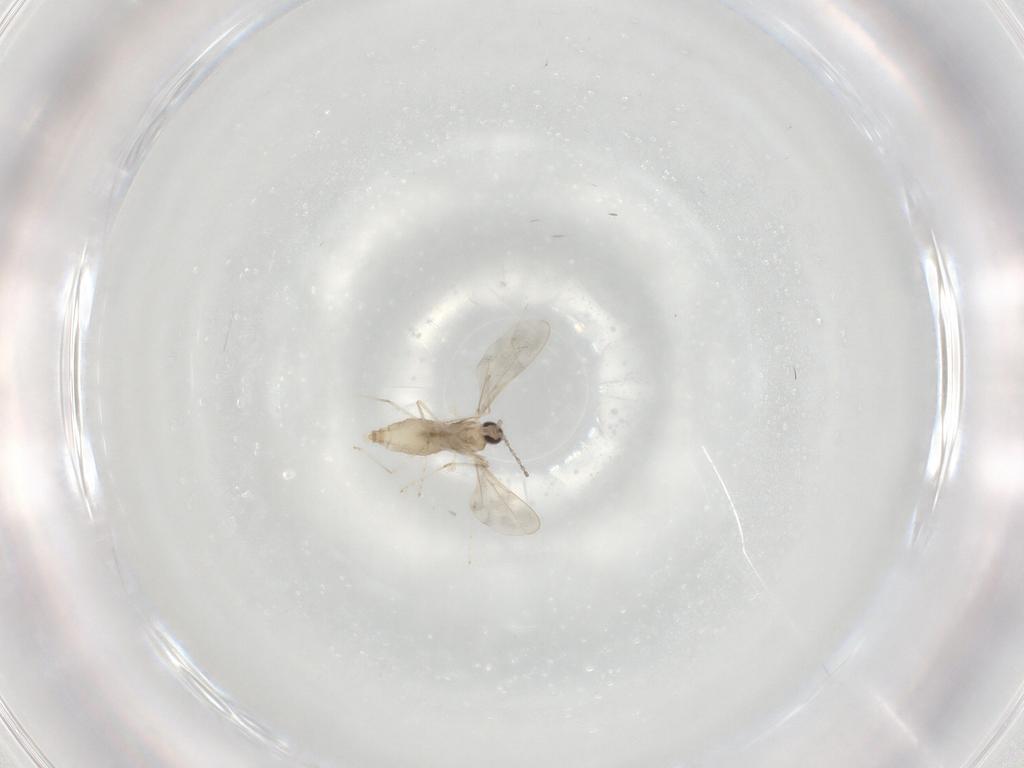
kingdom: Animalia
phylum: Arthropoda
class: Insecta
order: Diptera
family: Cecidomyiidae
